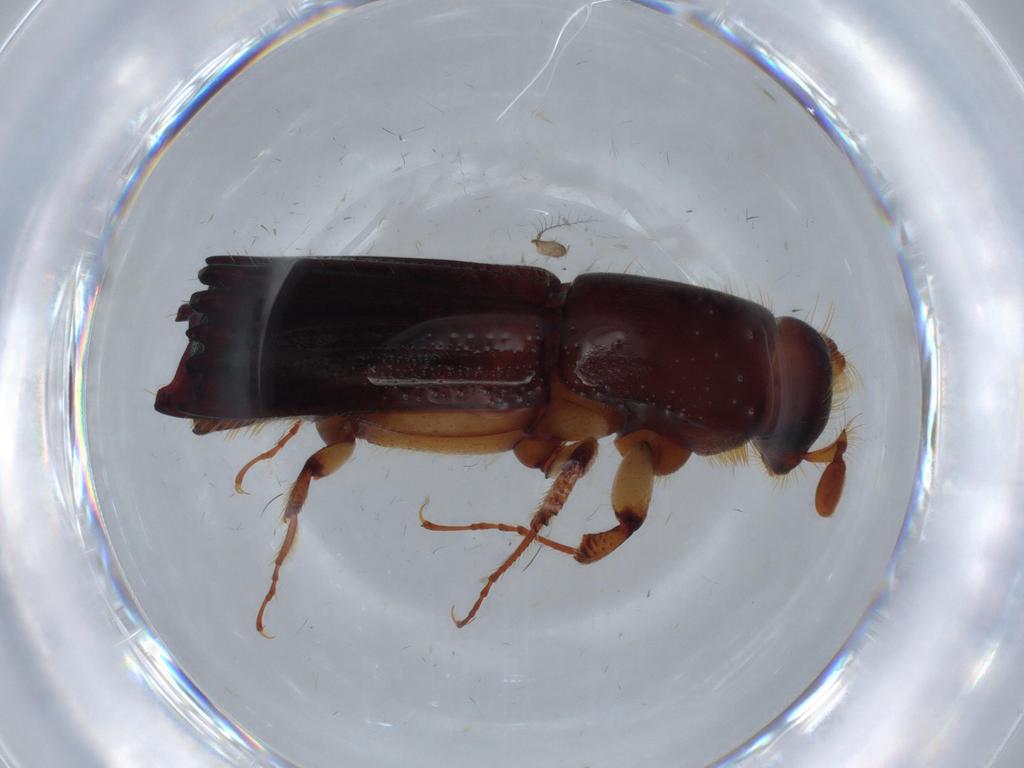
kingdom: Animalia
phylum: Arthropoda
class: Insecta
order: Coleoptera
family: Curculionidae
